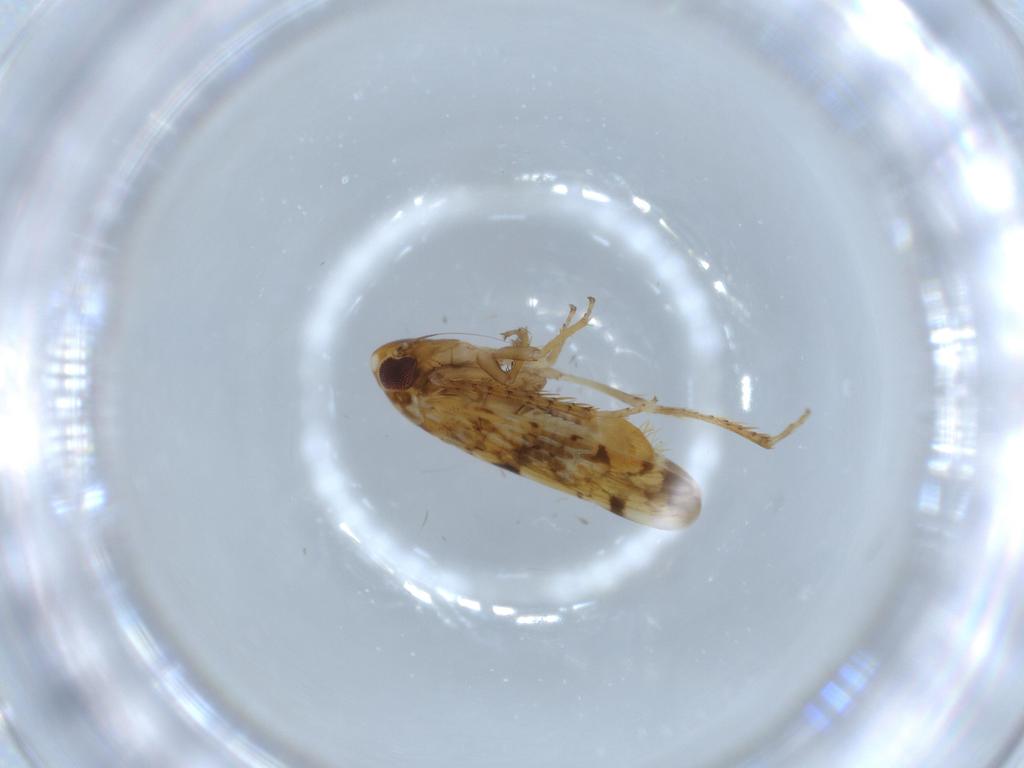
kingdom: Animalia
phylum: Arthropoda
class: Insecta
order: Hemiptera
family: Cicadellidae
